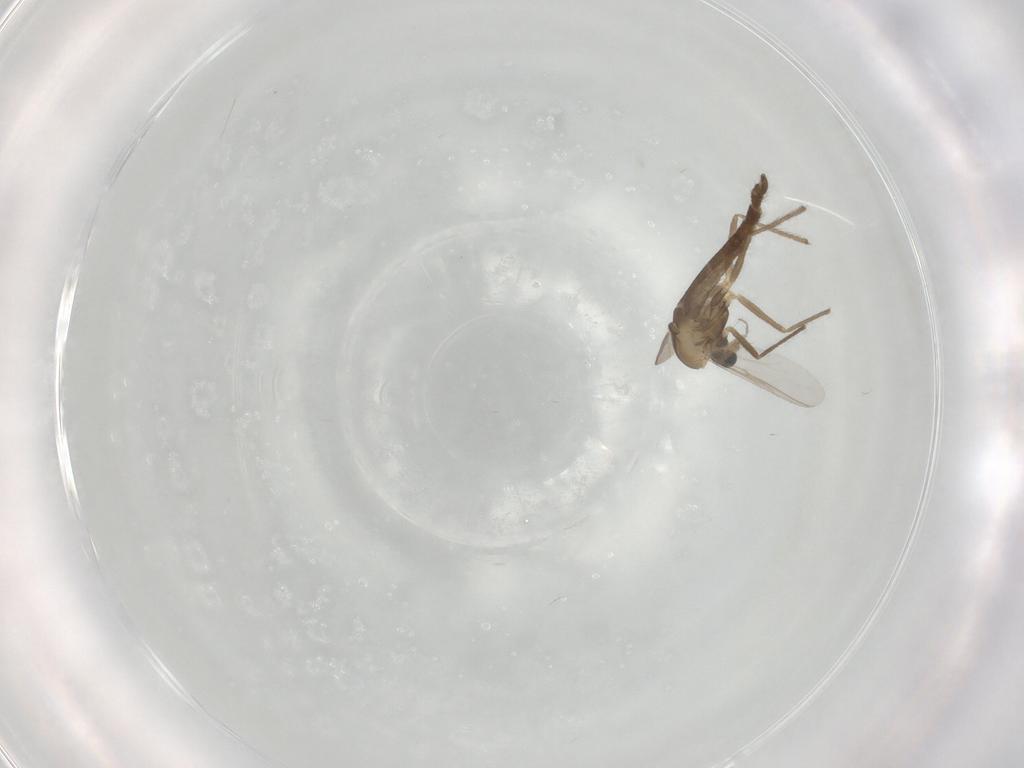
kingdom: Animalia
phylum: Arthropoda
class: Insecta
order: Diptera
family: Chironomidae
